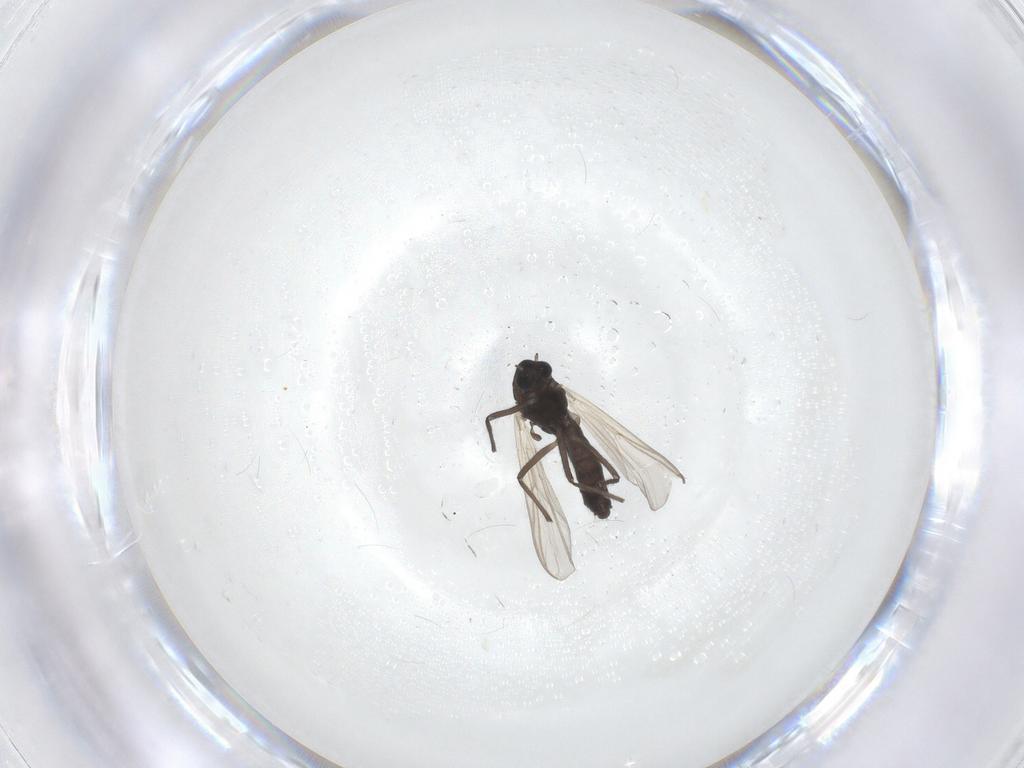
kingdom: Animalia
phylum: Arthropoda
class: Insecta
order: Diptera
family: Chironomidae
